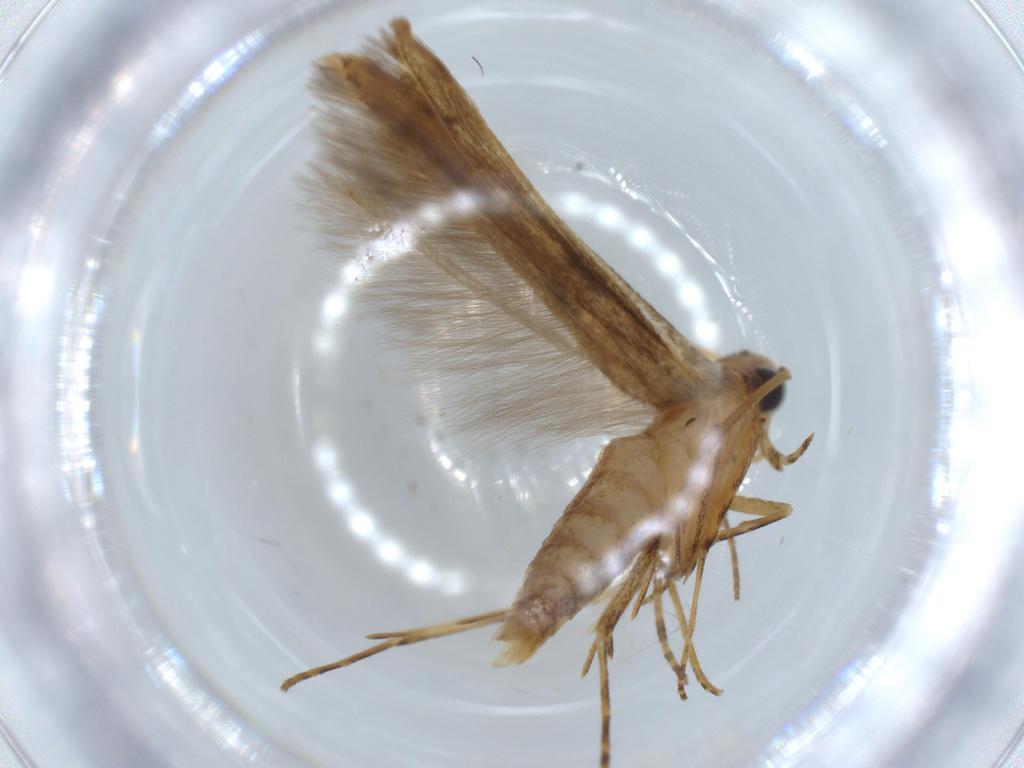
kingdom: Animalia
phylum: Arthropoda
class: Insecta
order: Lepidoptera
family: Batrachedridae
